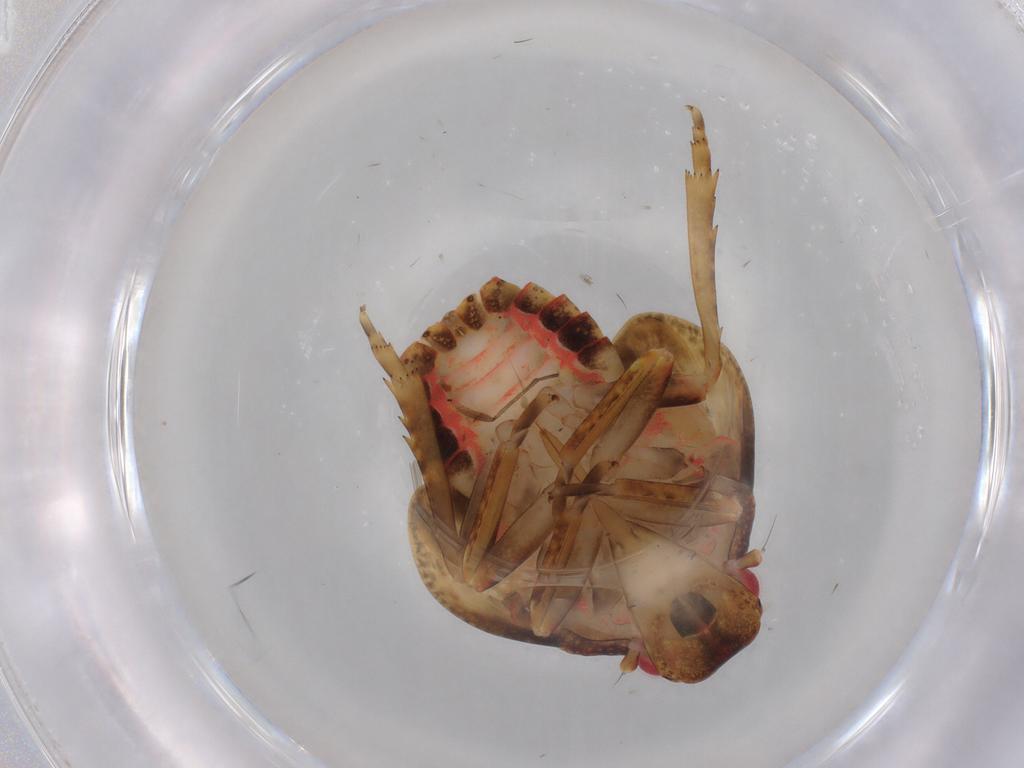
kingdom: Animalia
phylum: Arthropoda
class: Insecta
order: Hemiptera
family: Flatidae
